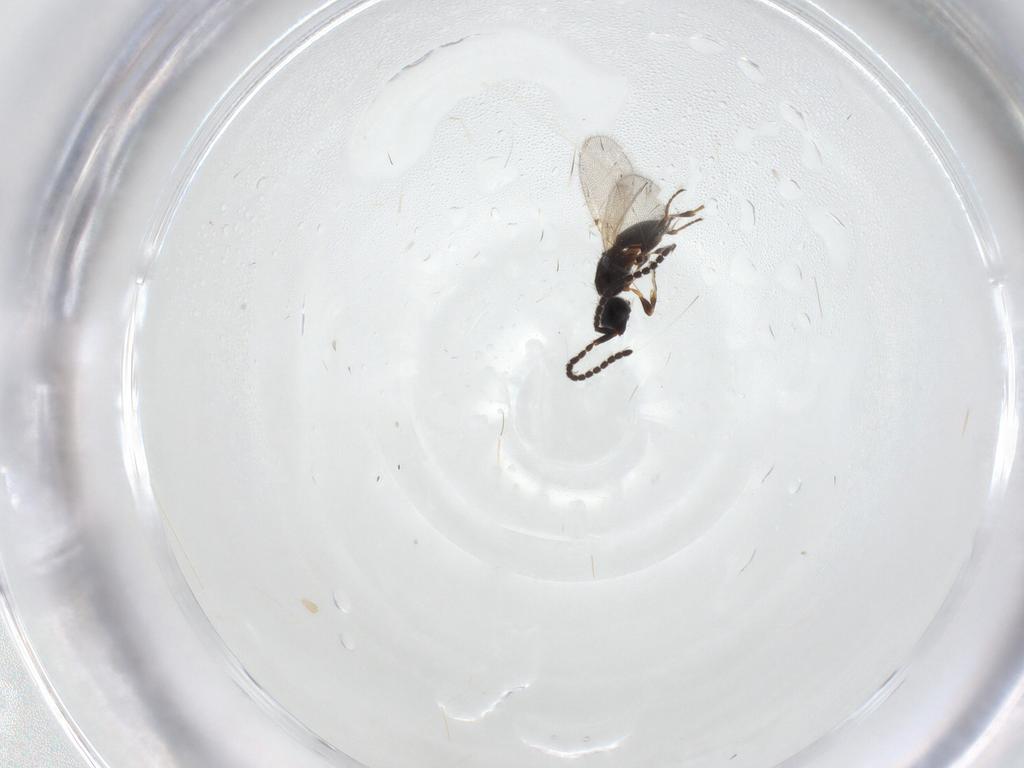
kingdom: Animalia
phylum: Arthropoda
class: Insecta
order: Hymenoptera
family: Diapriidae
